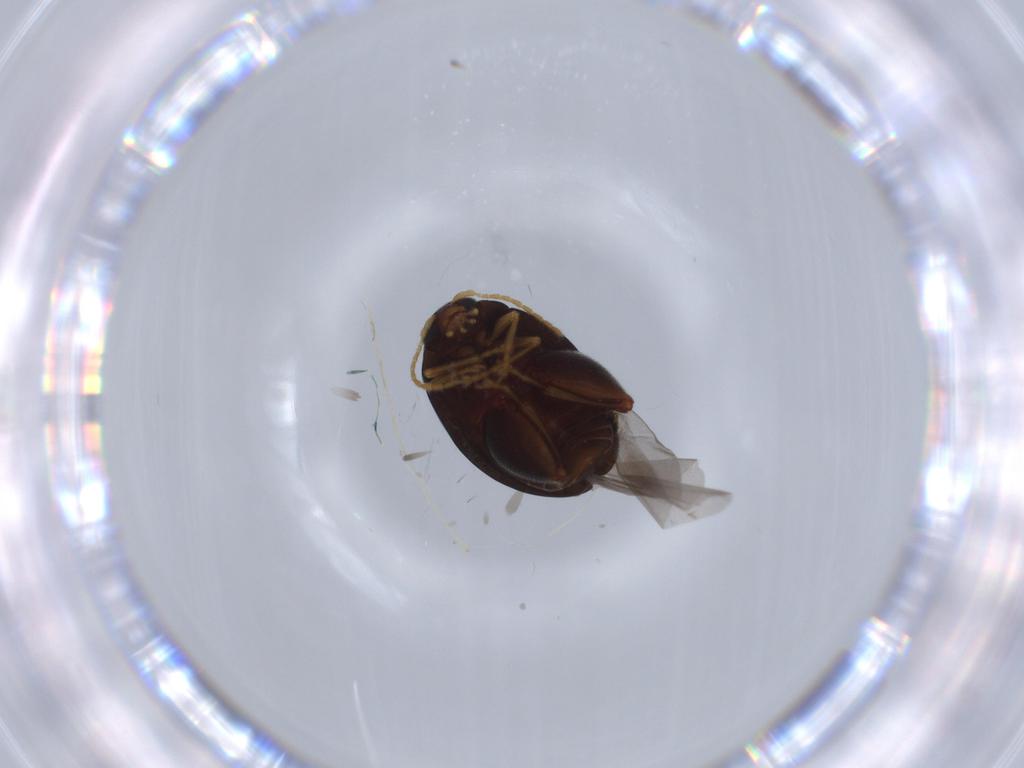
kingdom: Animalia
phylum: Arthropoda
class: Insecta
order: Coleoptera
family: Chrysomelidae
